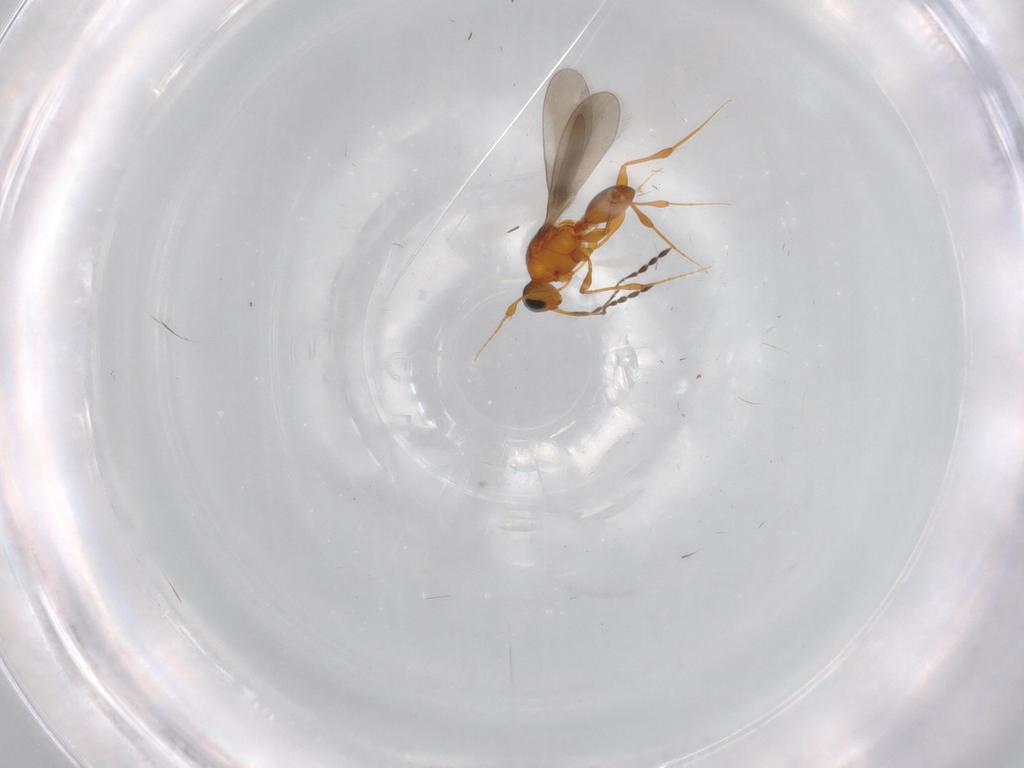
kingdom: Animalia
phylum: Arthropoda
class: Insecta
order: Hymenoptera
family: Platygastridae
